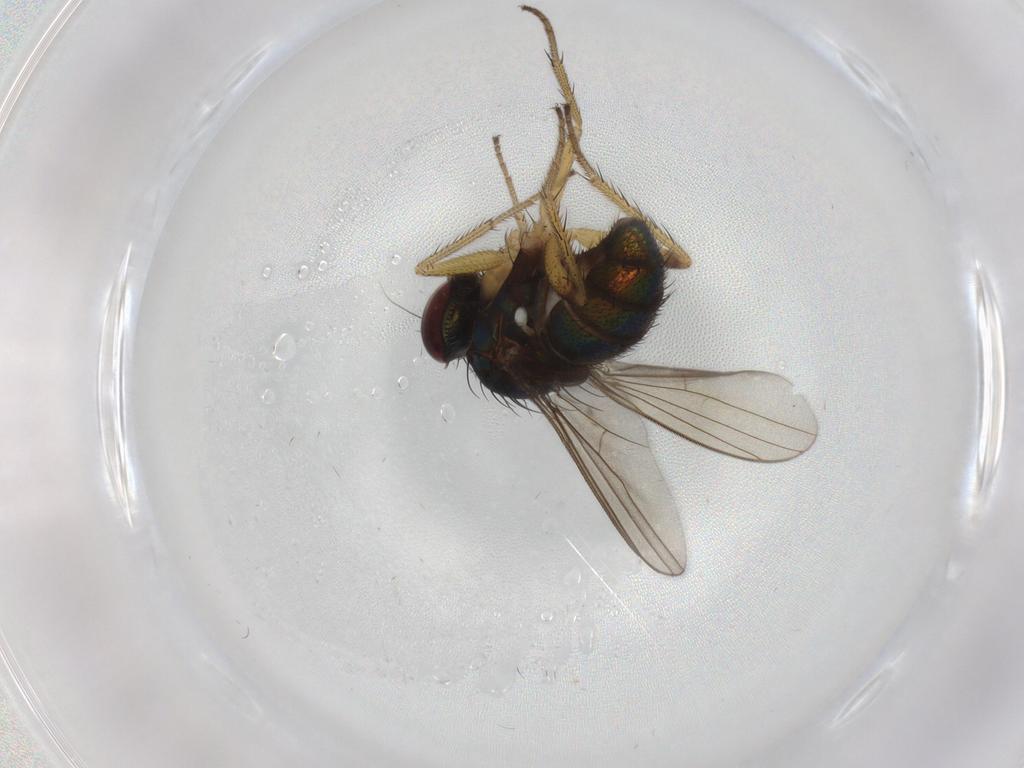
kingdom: Animalia
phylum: Arthropoda
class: Insecta
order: Diptera
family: Dolichopodidae
